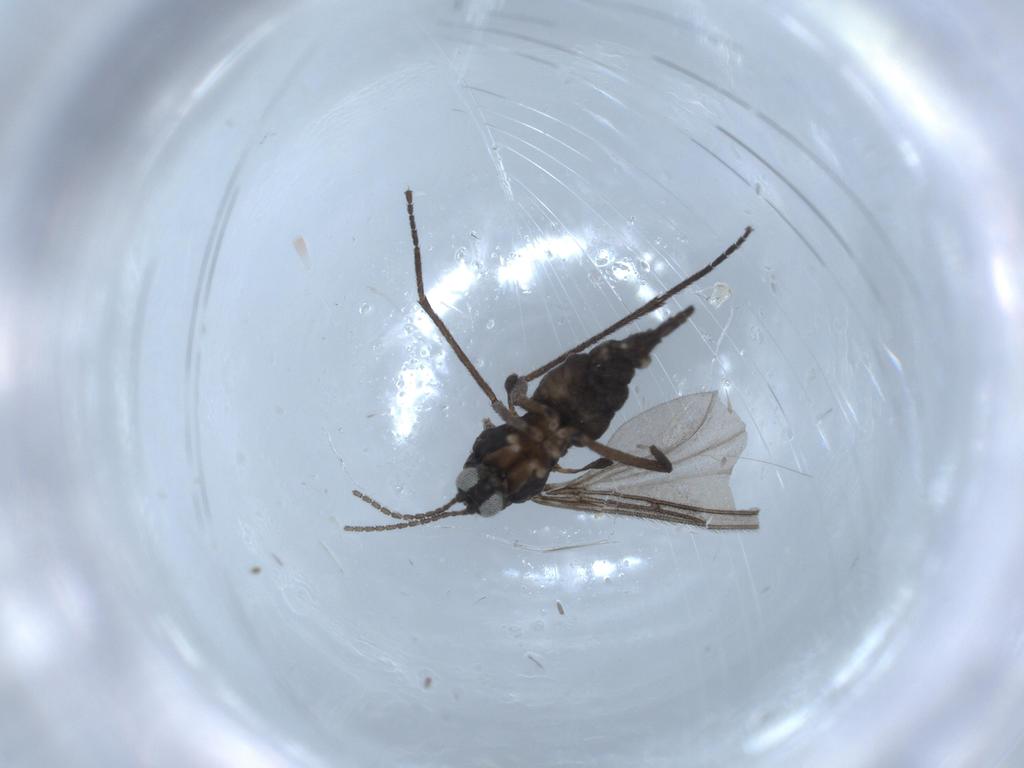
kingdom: Animalia
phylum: Arthropoda
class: Insecta
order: Diptera
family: Sciaridae
